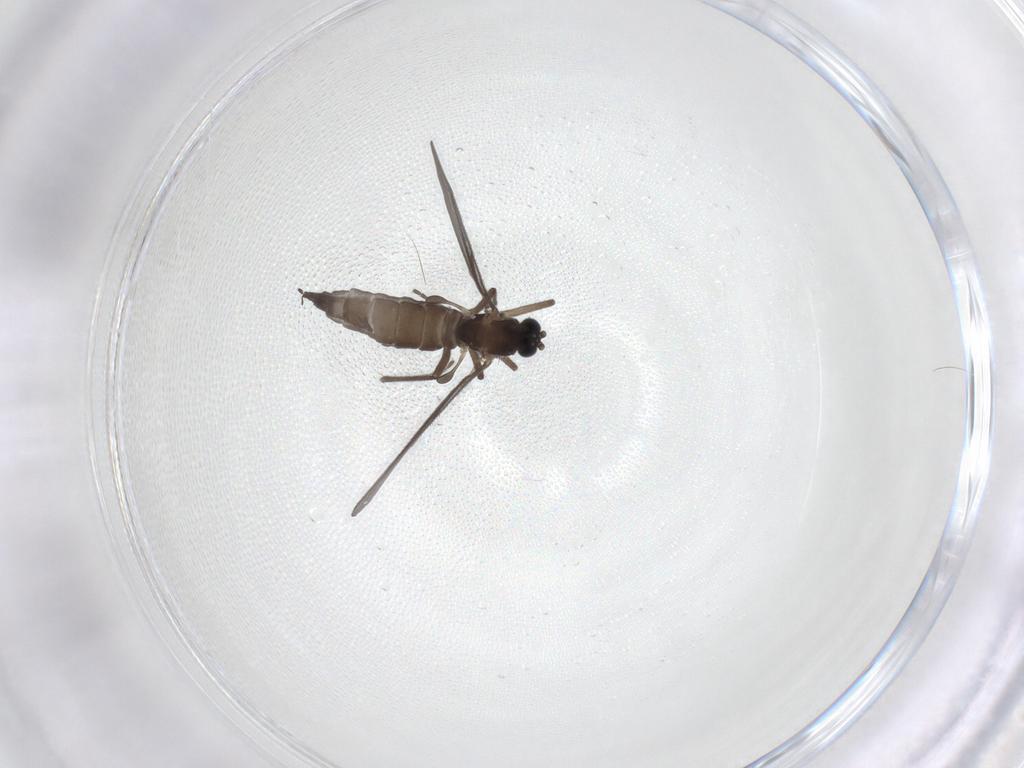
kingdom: Animalia
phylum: Arthropoda
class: Insecta
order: Diptera
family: Sciaridae
